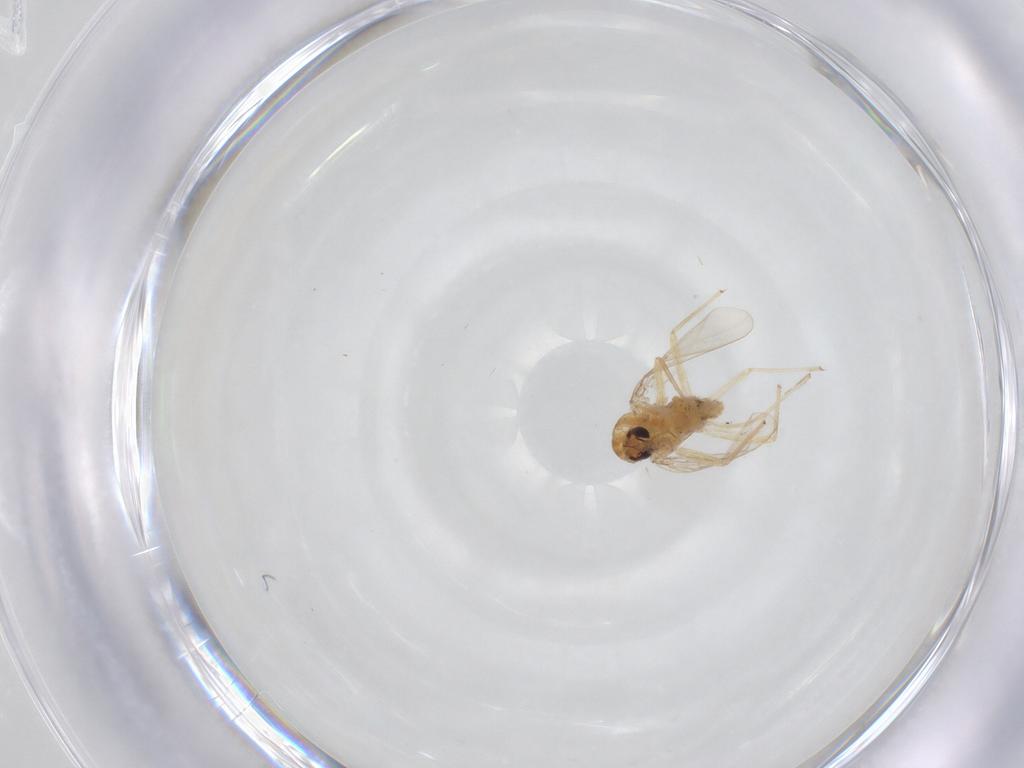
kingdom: Animalia
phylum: Arthropoda
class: Insecta
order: Diptera
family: Chironomidae
